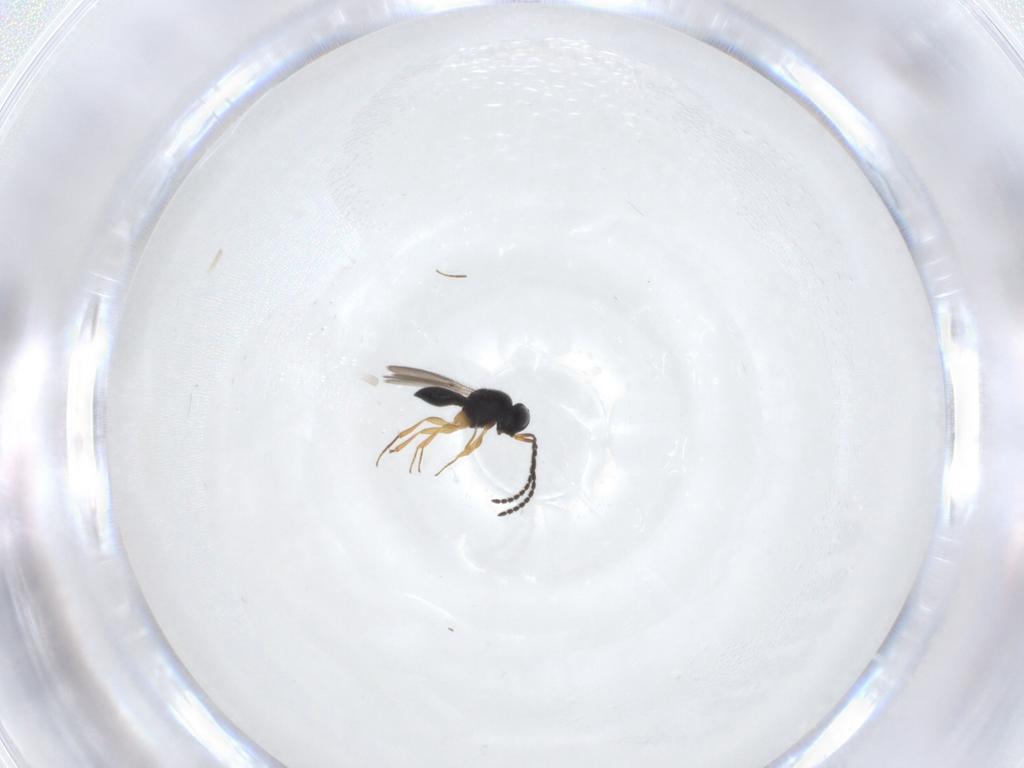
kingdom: Animalia
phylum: Arthropoda
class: Insecta
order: Hymenoptera
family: Scelionidae
